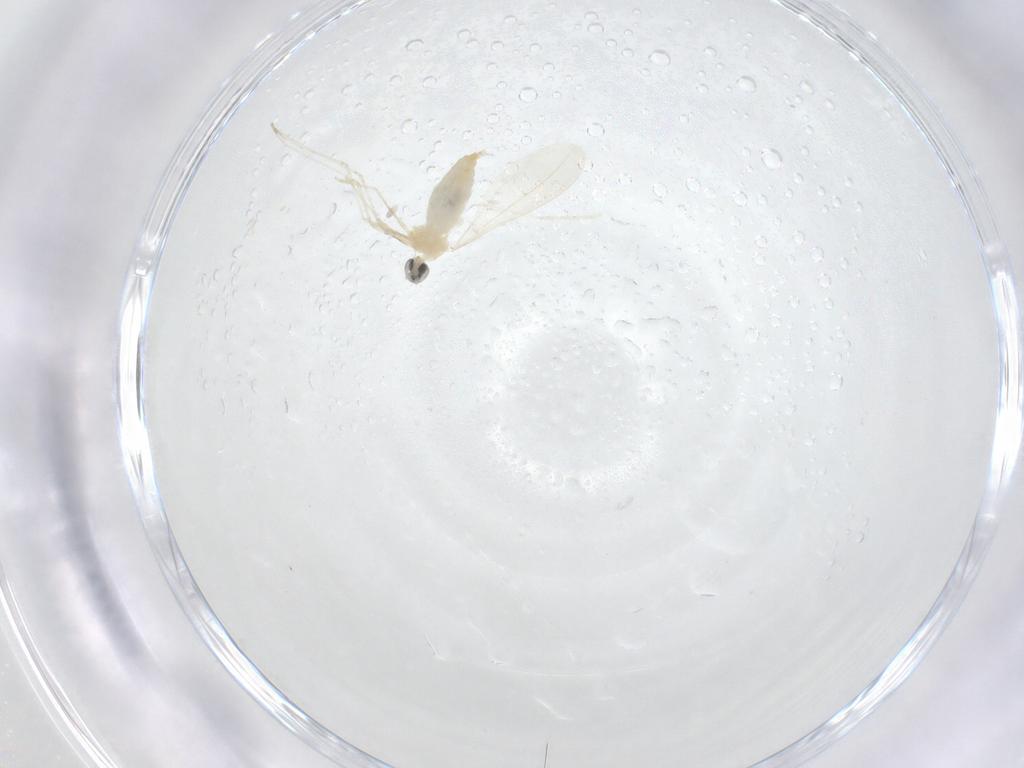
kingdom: Animalia
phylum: Arthropoda
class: Insecta
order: Diptera
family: Cecidomyiidae
